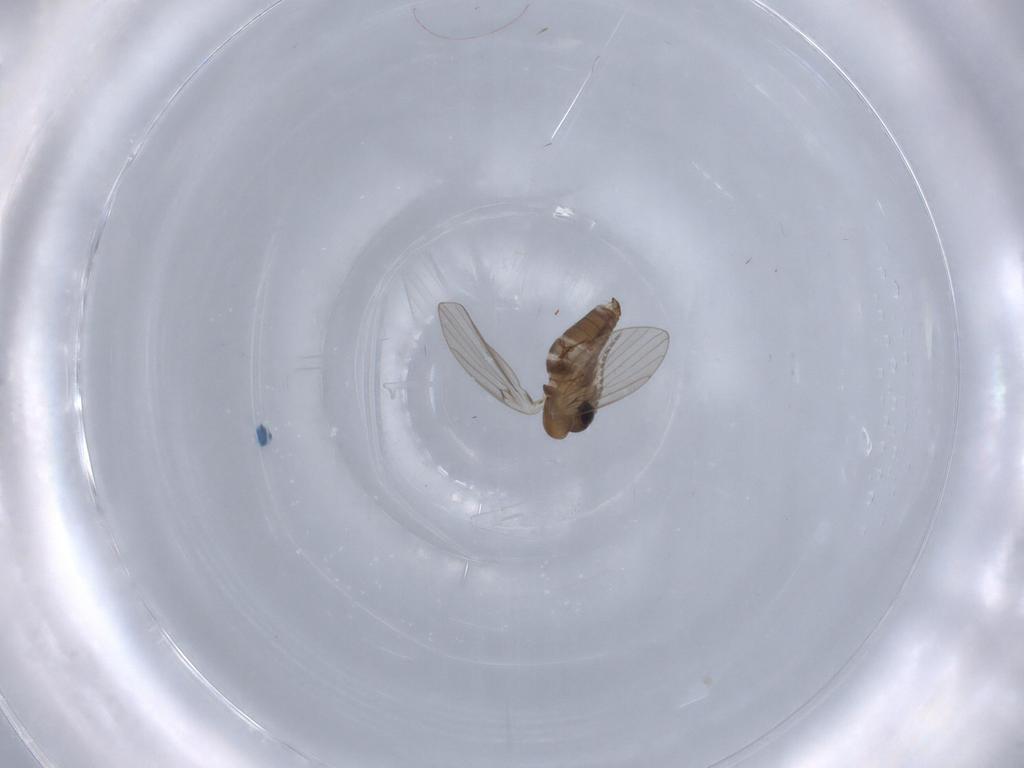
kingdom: Animalia
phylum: Arthropoda
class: Insecta
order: Diptera
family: Psychodidae
